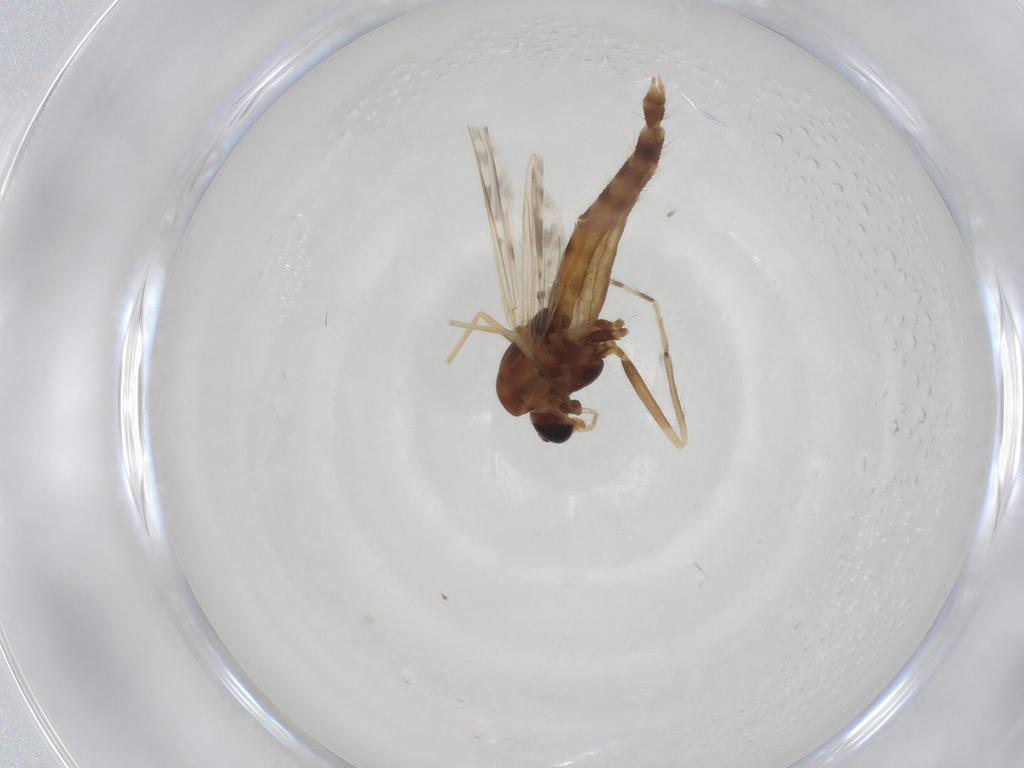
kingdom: Animalia
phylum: Arthropoda
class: Insecta
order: Diptera
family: Chironomidae
